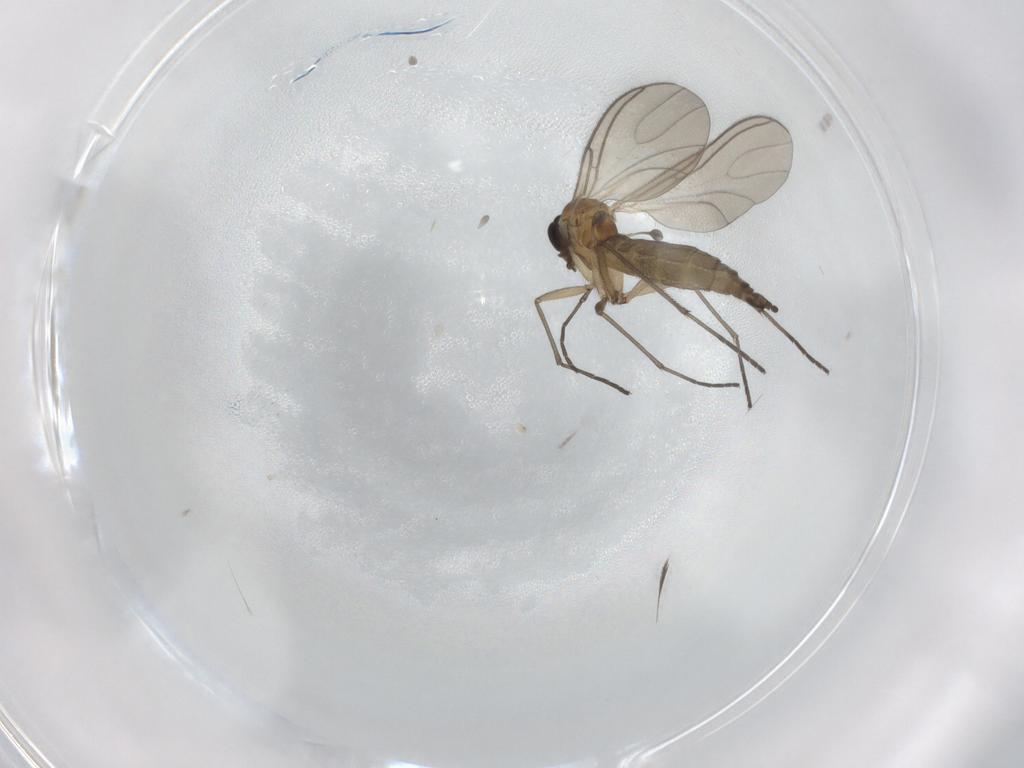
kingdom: Animalia
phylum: Arthropoda
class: Insecta
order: Diptera
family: Sciaridae
